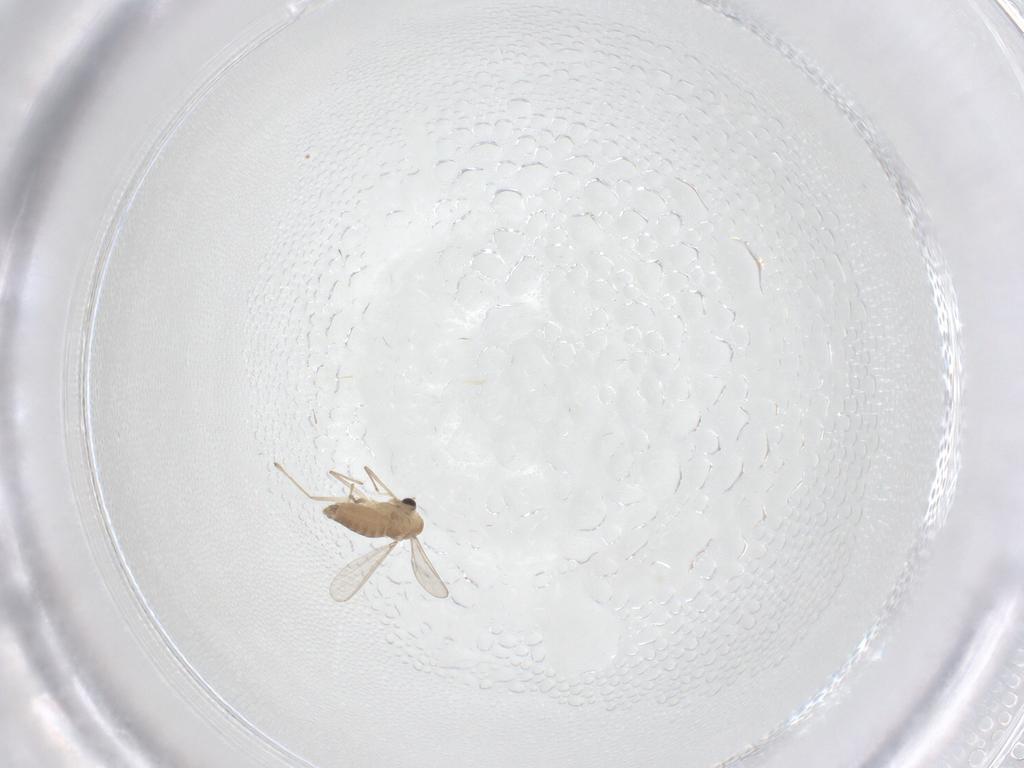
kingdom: Animalia
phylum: Arthropoda
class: Insecta
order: Diptera
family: Chironomidae
